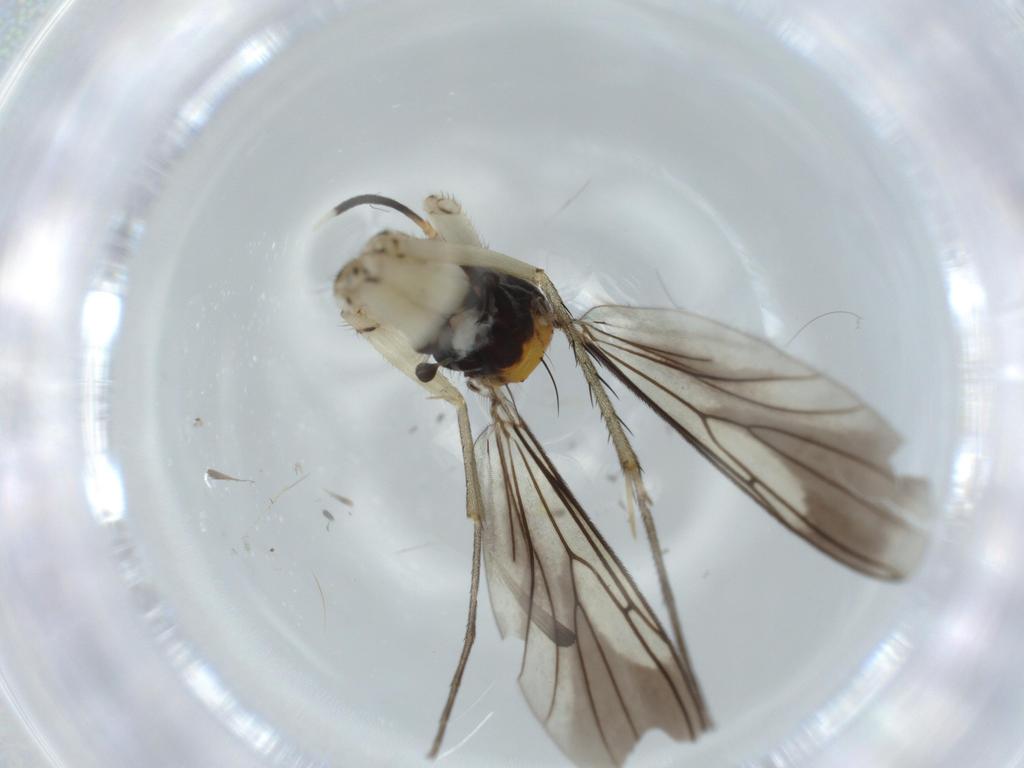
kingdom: Animalia
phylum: Arthropoda
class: Insecta
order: Diptera
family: Mycetophilidae
